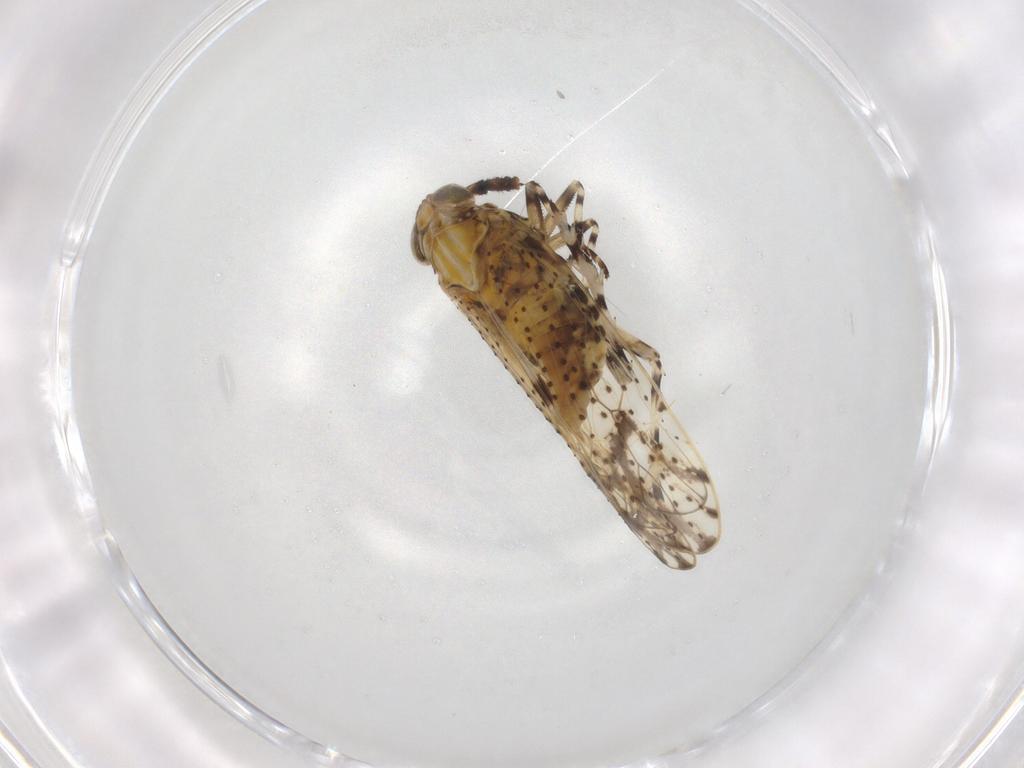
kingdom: Animalia
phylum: Arthropoda
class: Insecta
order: Hemiptera
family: Delphacidae
